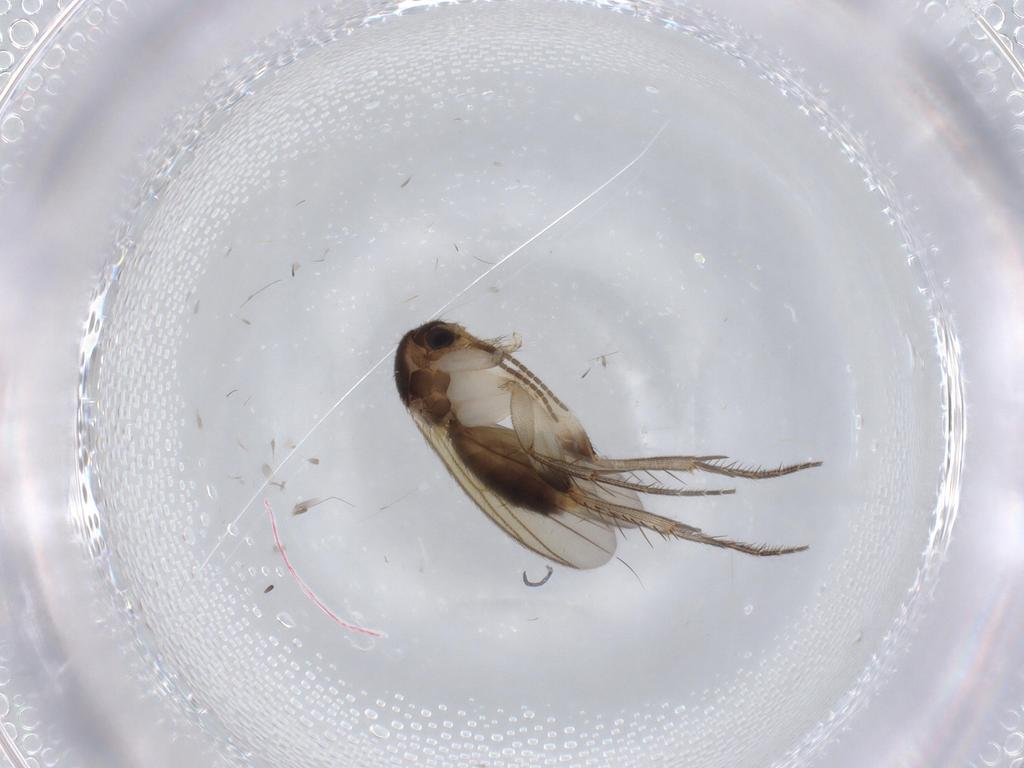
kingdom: Animalia
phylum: Arthropoda
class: Insecta
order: Diptera
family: Mycetophilidae
